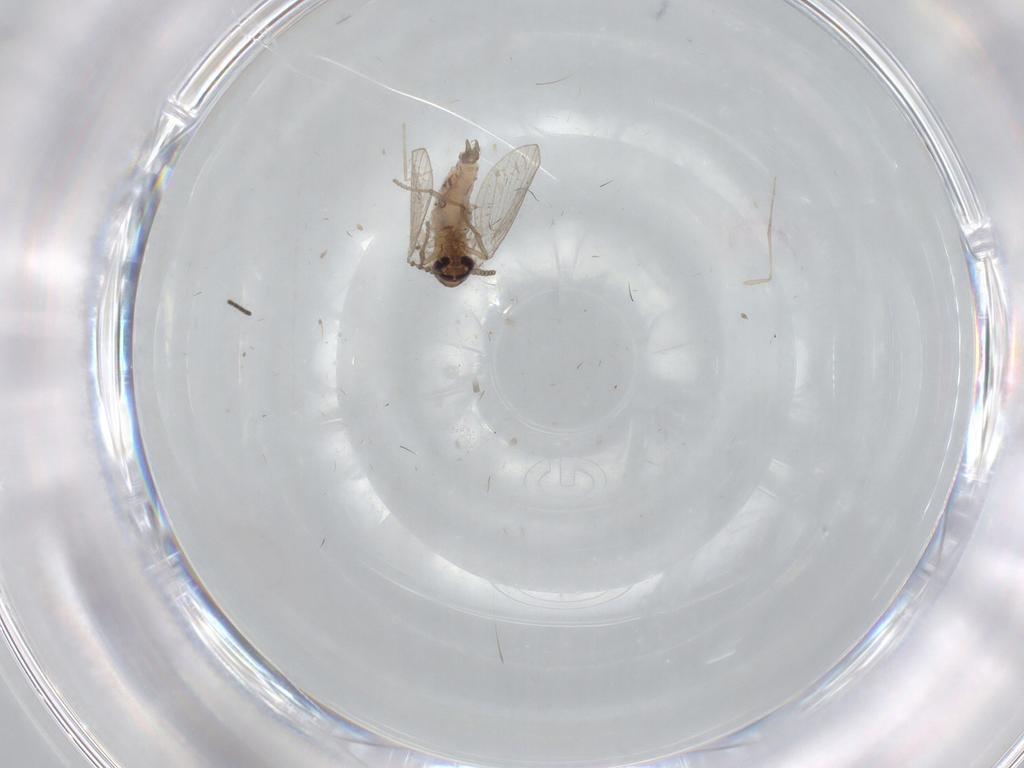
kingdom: Animalia
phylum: Arthropoda
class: Insecta
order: Diptera
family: Psychodidae
